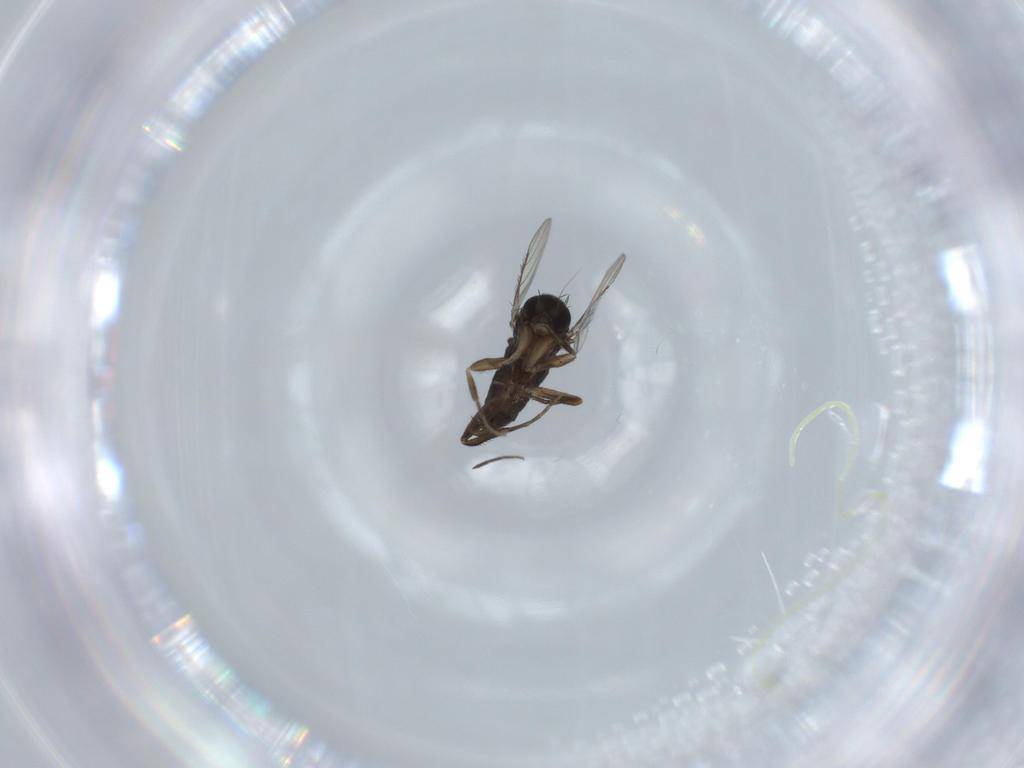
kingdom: Animalia
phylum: Arthropoda
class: Insecta
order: Diptera
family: Phoridae
